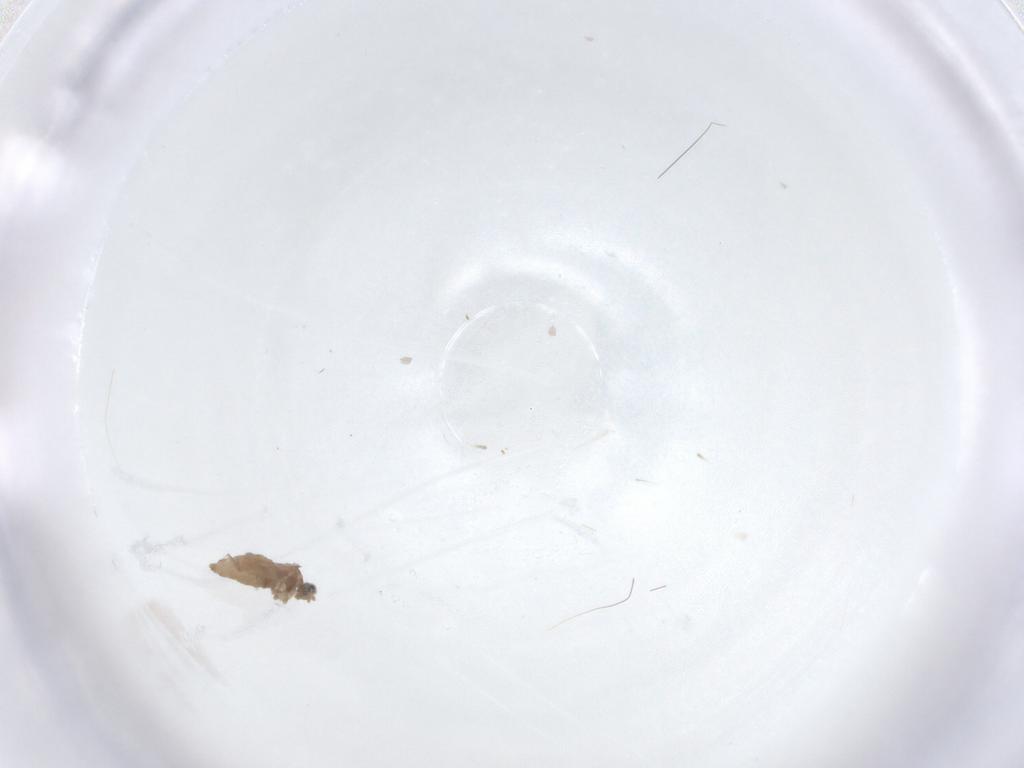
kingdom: Animalia
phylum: Arthropoda
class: Insecta
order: Diptera
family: Cecidomyiidae
